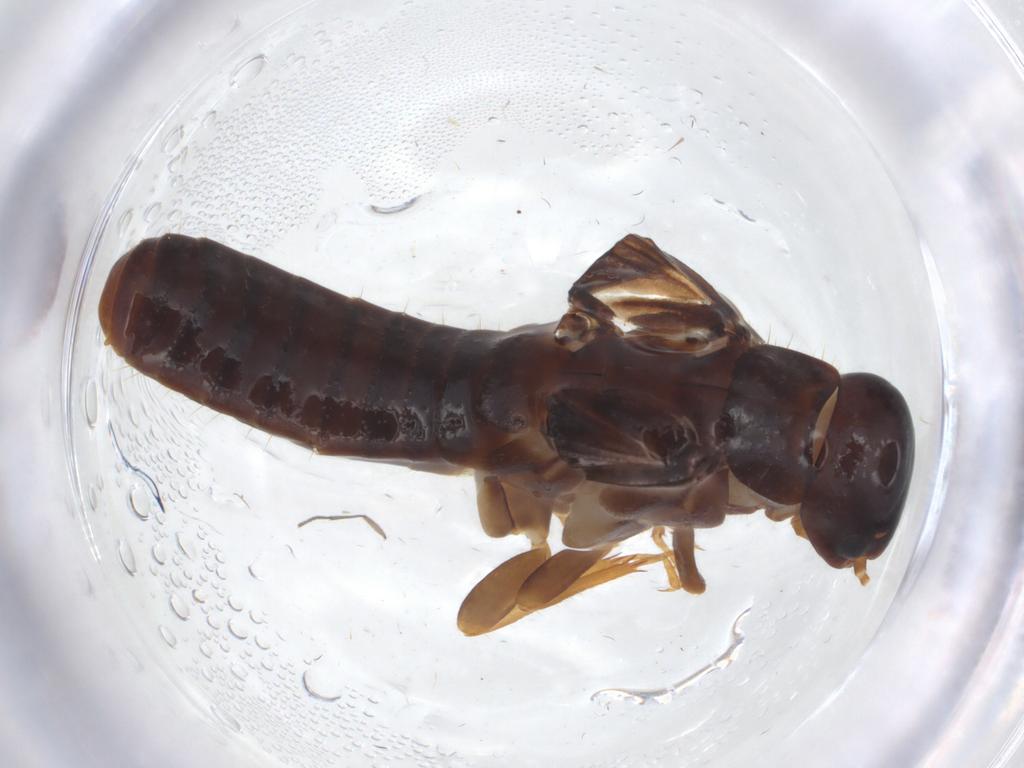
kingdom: Animalia
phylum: Arthropoda
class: Insecta
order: Blattodea
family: Kalotermitidae
